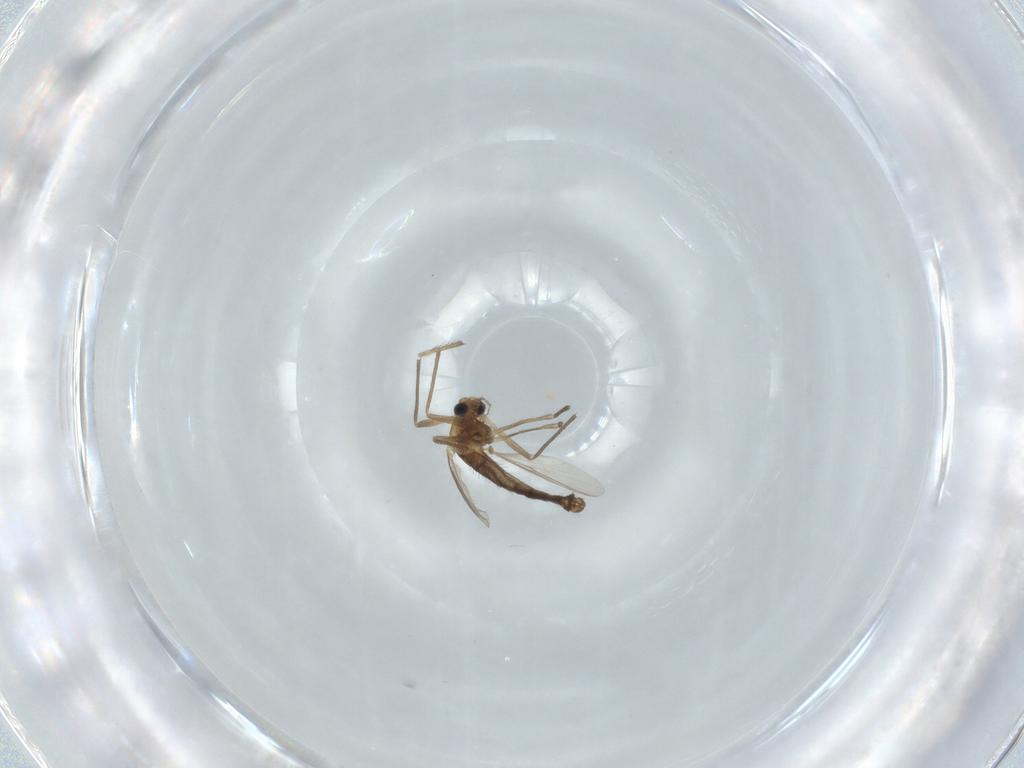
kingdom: Animalia
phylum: Arthropoda
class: Insecta
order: Diptera
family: Chironomidae
